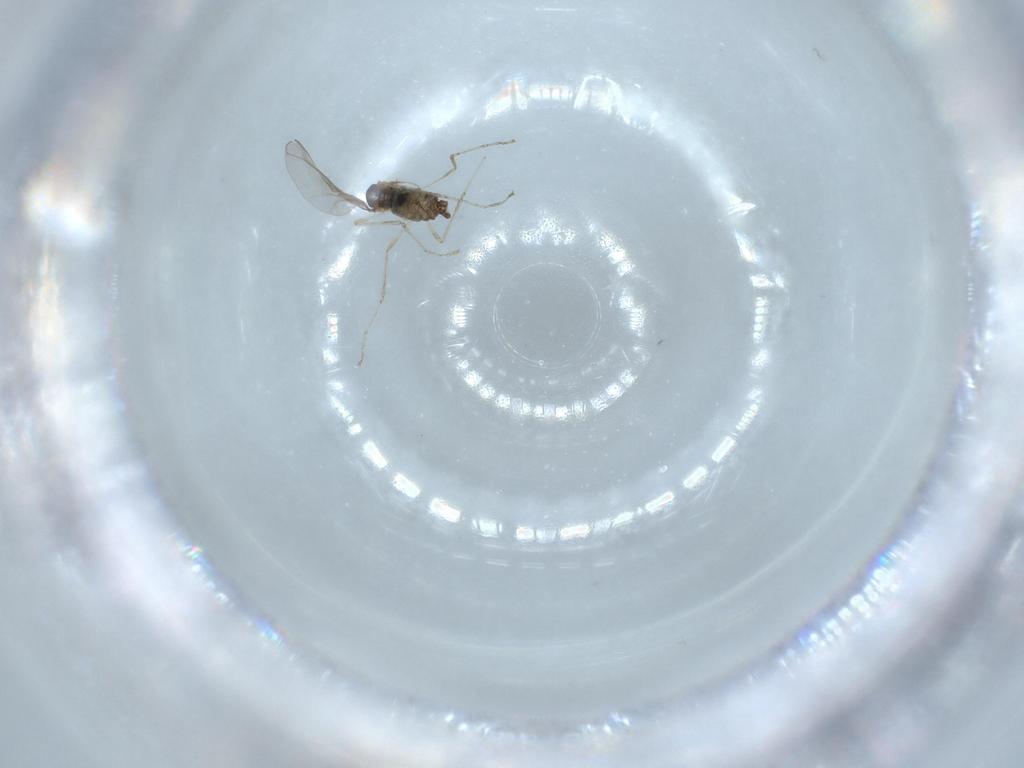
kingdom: Animalia
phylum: Arthropoda
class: Insecta
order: Diptera
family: Cecidomyiidae
